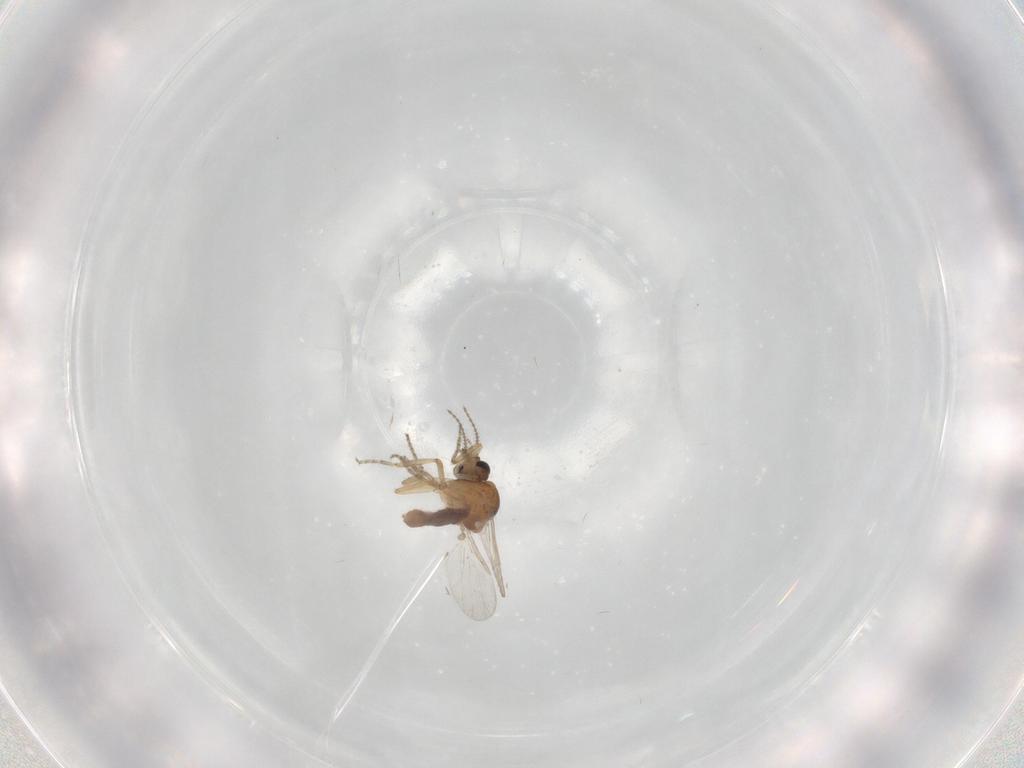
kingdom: Animalia
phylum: Arthropoda
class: Insecta
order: Diptera
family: Ceratopogonidae
